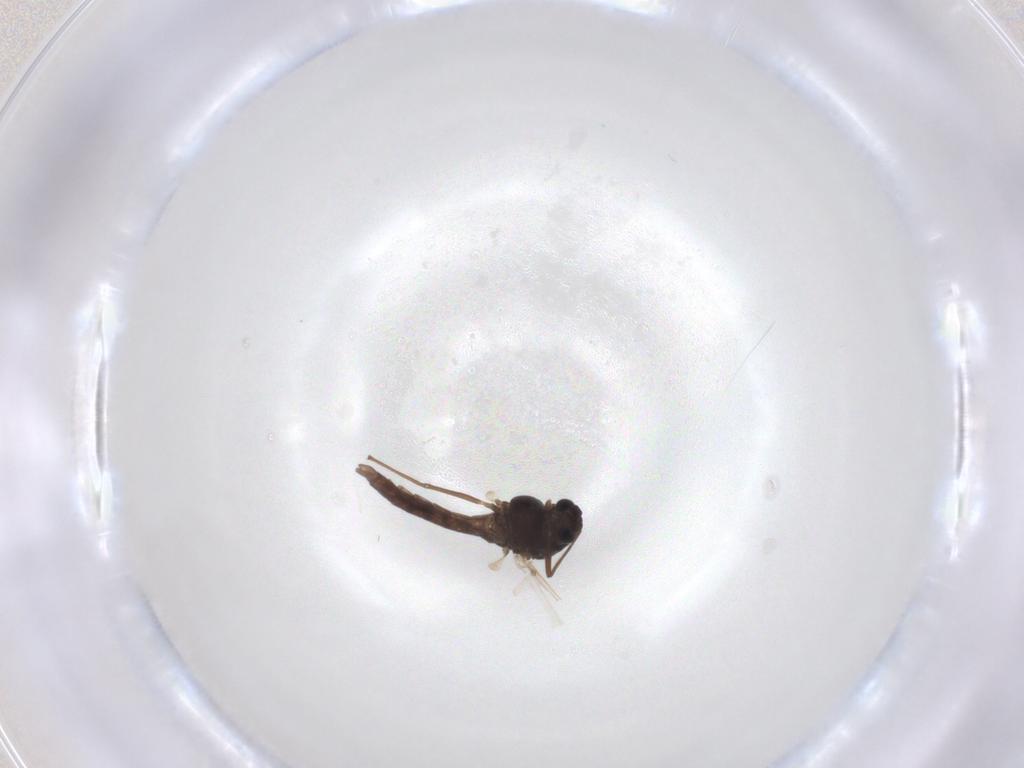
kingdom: Animalia
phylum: Arthropoda
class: Insecta
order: Diptera
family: Chironomidae
